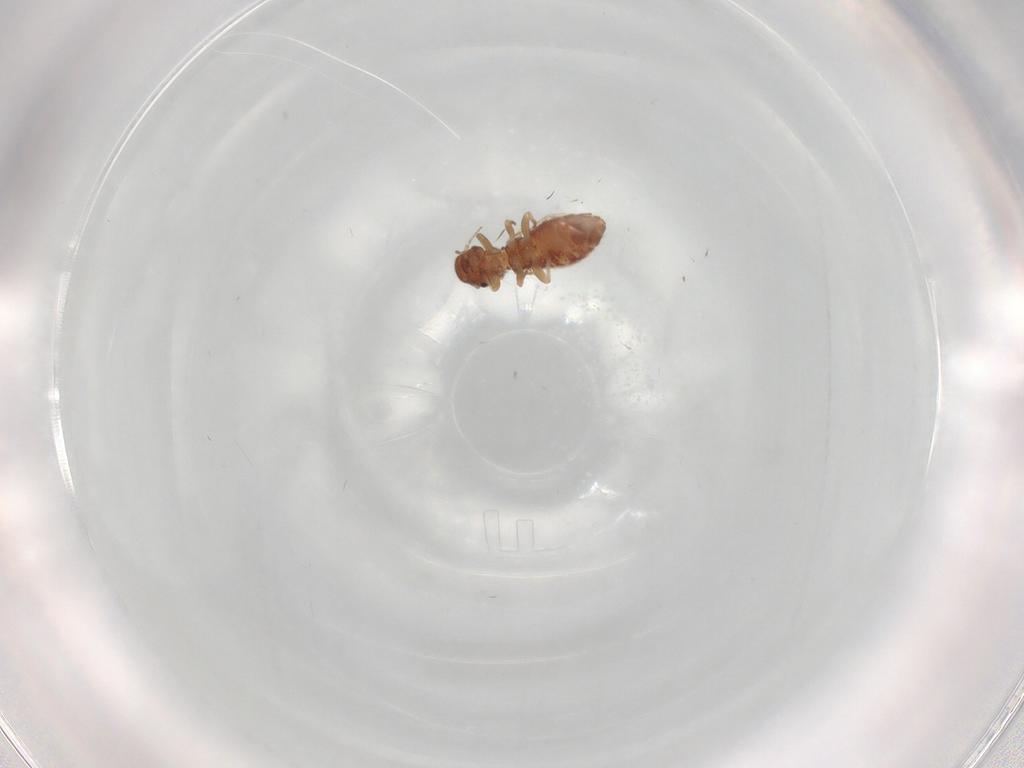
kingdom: Animalia
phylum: Arthropoda
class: Insecta
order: Psocodea
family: Archipsocidae
